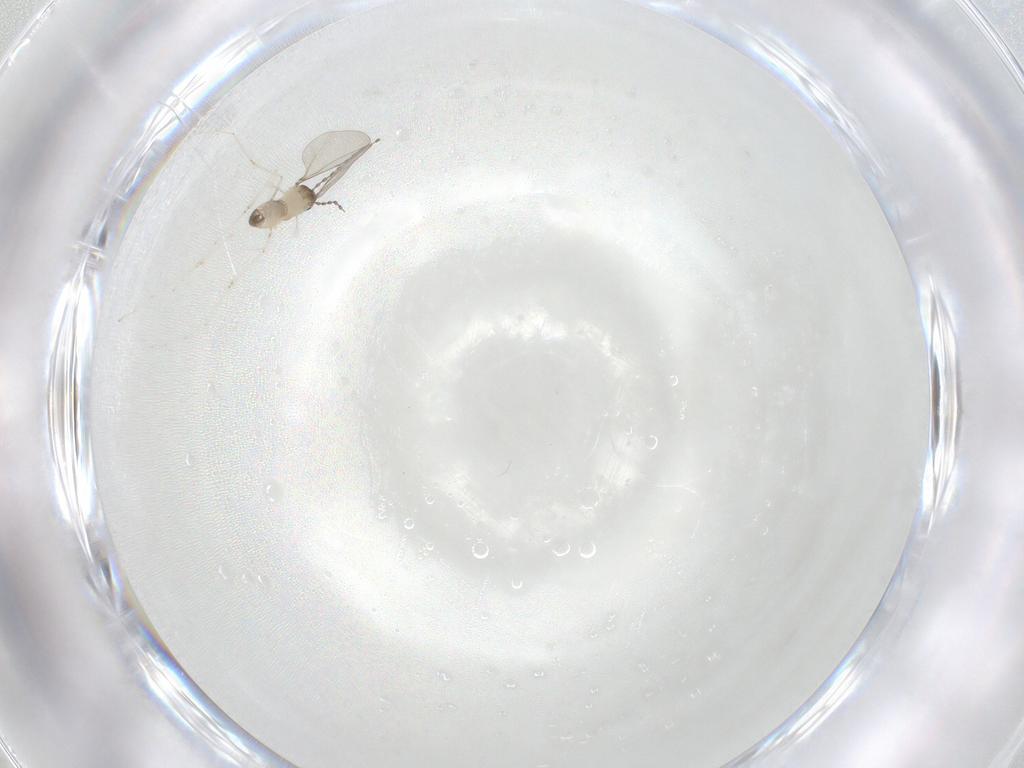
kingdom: Animalia
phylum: Arthropoda
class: Insecta
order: Diptera
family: Cecidomyiidae
